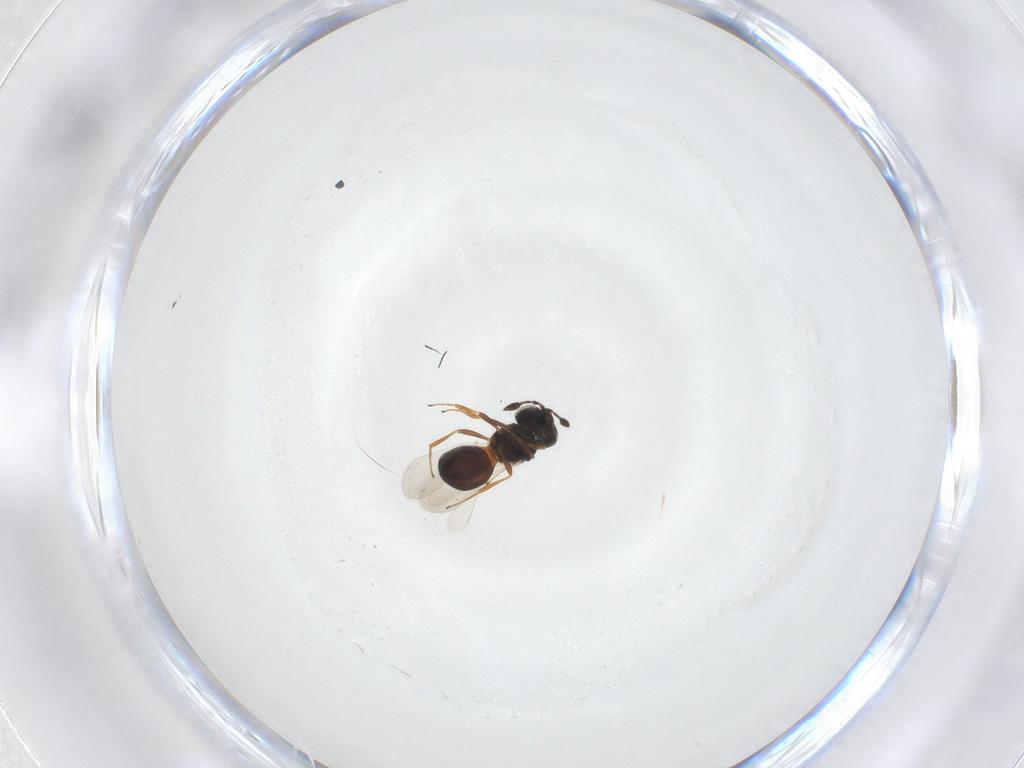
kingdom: Animalia
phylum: Arthropoda
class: Arachnida
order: Araneae
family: Pholcidae
